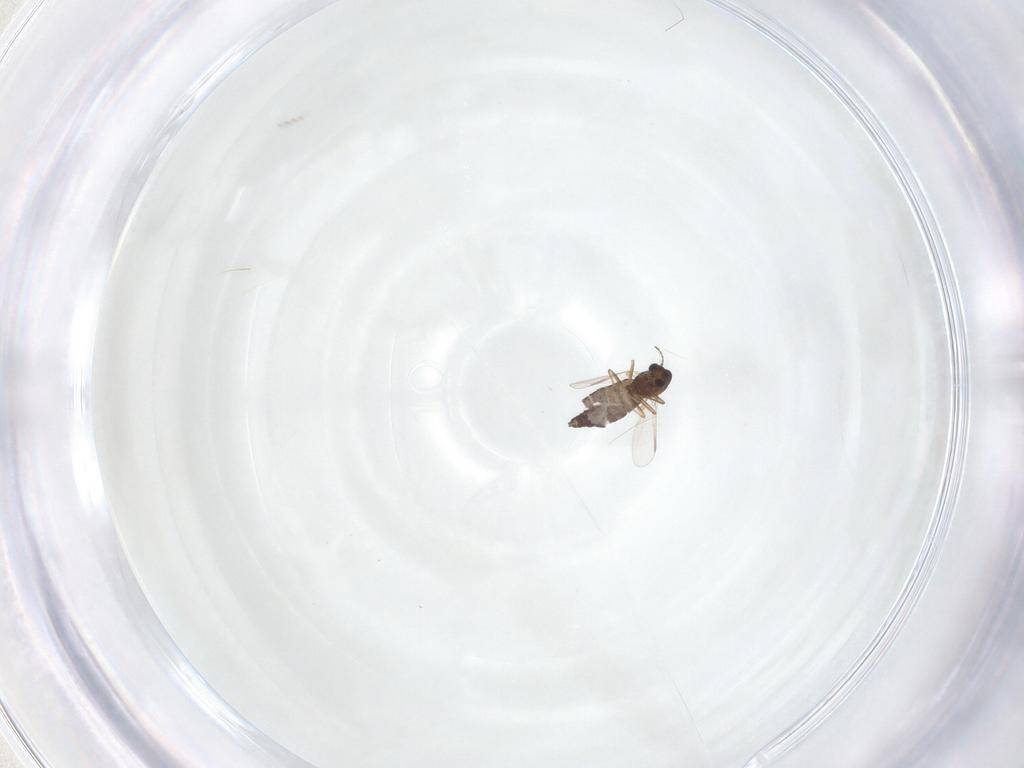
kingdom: Animalia
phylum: Arthropoda
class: Insecta
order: Diptera
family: Chironomidae
